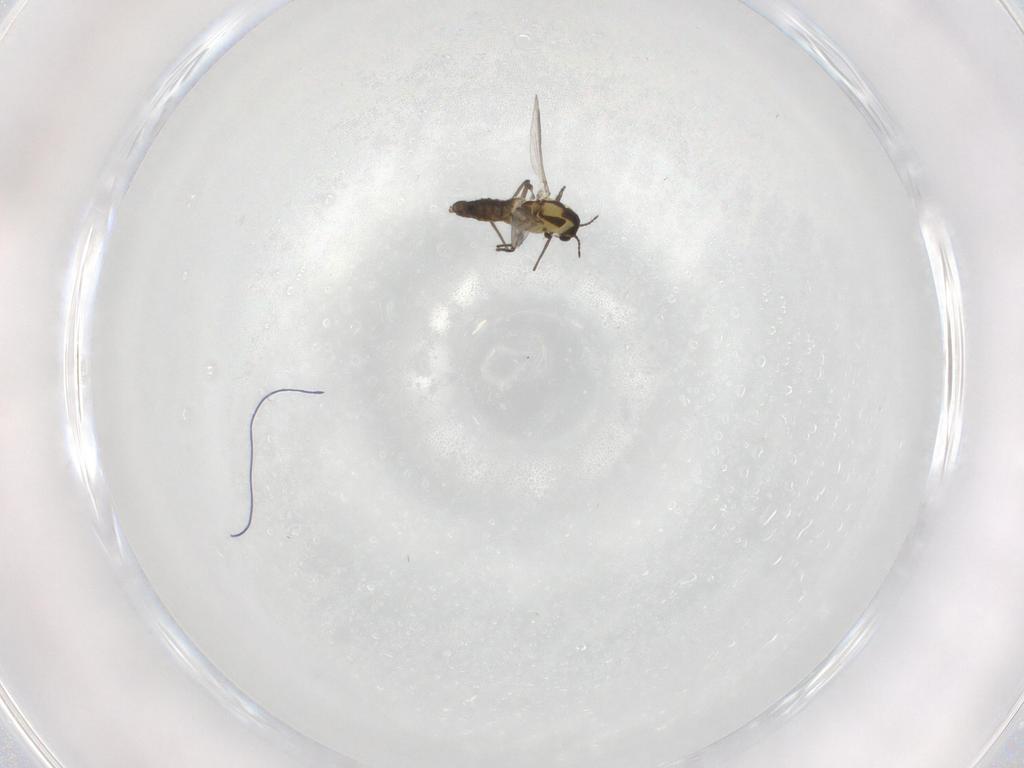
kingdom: Animalia
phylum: Arthropoda
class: Insecta
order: Diptera
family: Chironomidae
